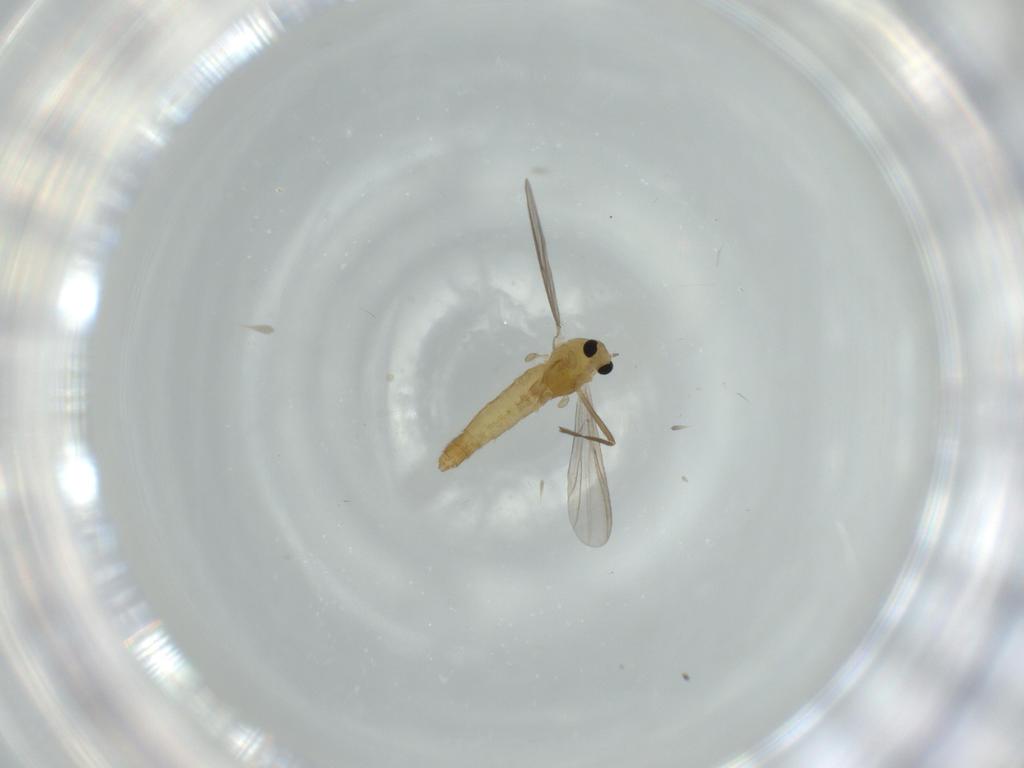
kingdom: Animalia
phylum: Arthropoda
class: Insecta
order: Diptera
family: Chironomidae
